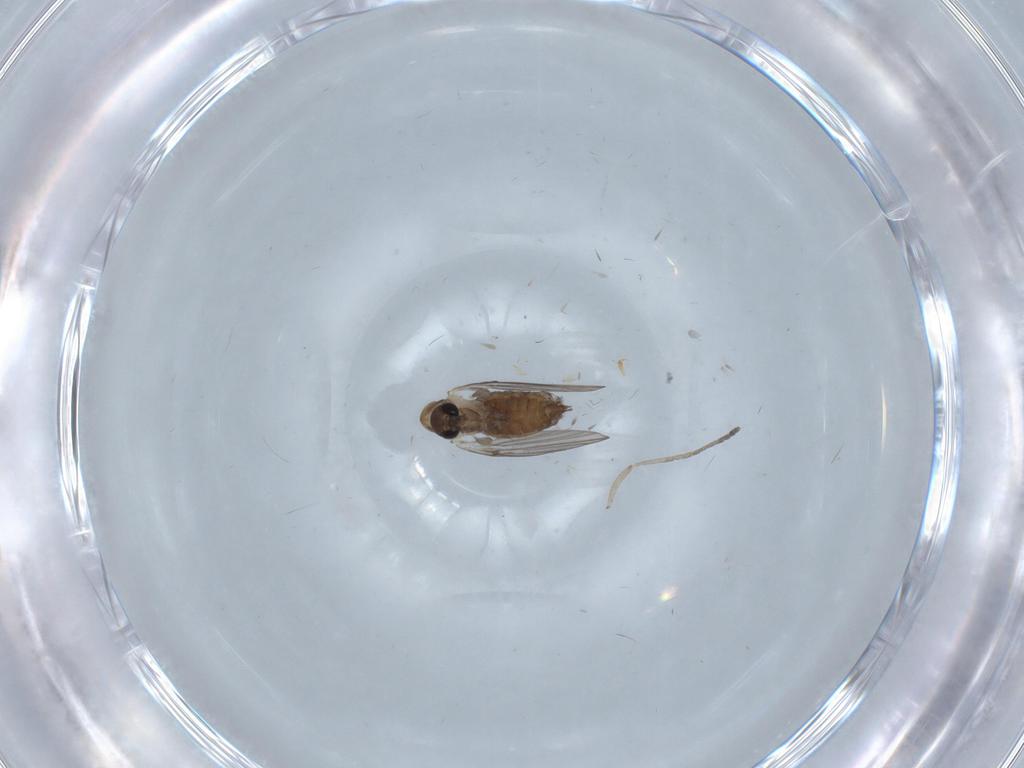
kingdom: Animalia
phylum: Arthropoda
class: Insecta
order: Diptera
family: Psychodidae
